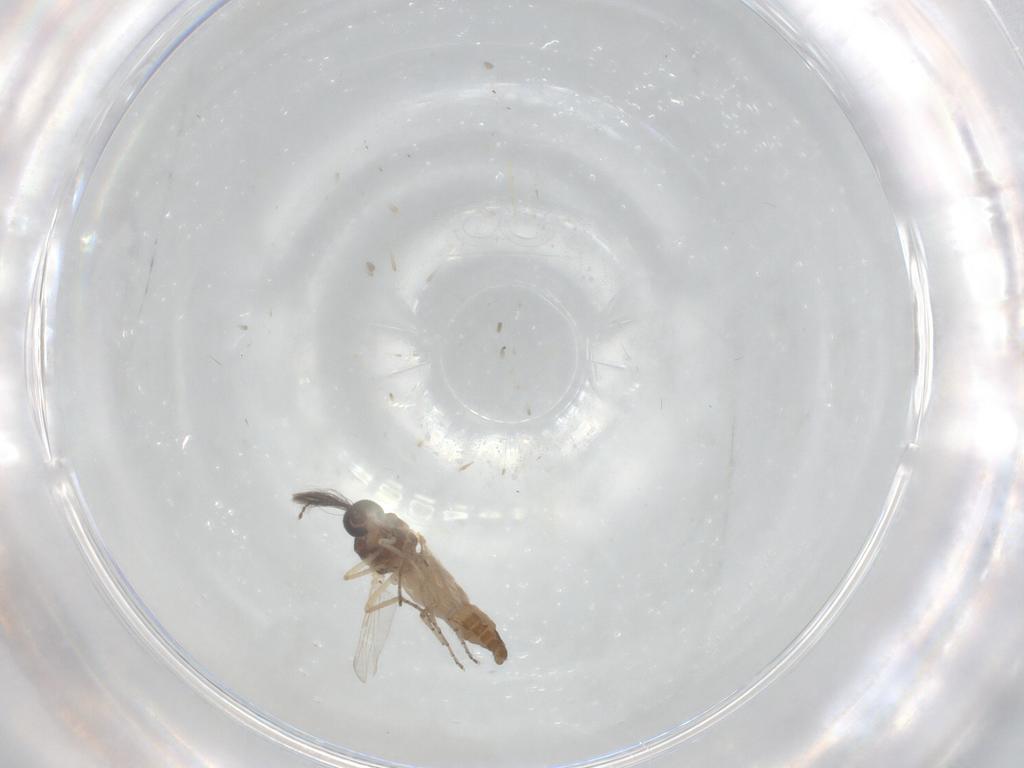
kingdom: Animalia
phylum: Arthropoda
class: Insecta
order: Diptera
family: Ceratopogonidae
